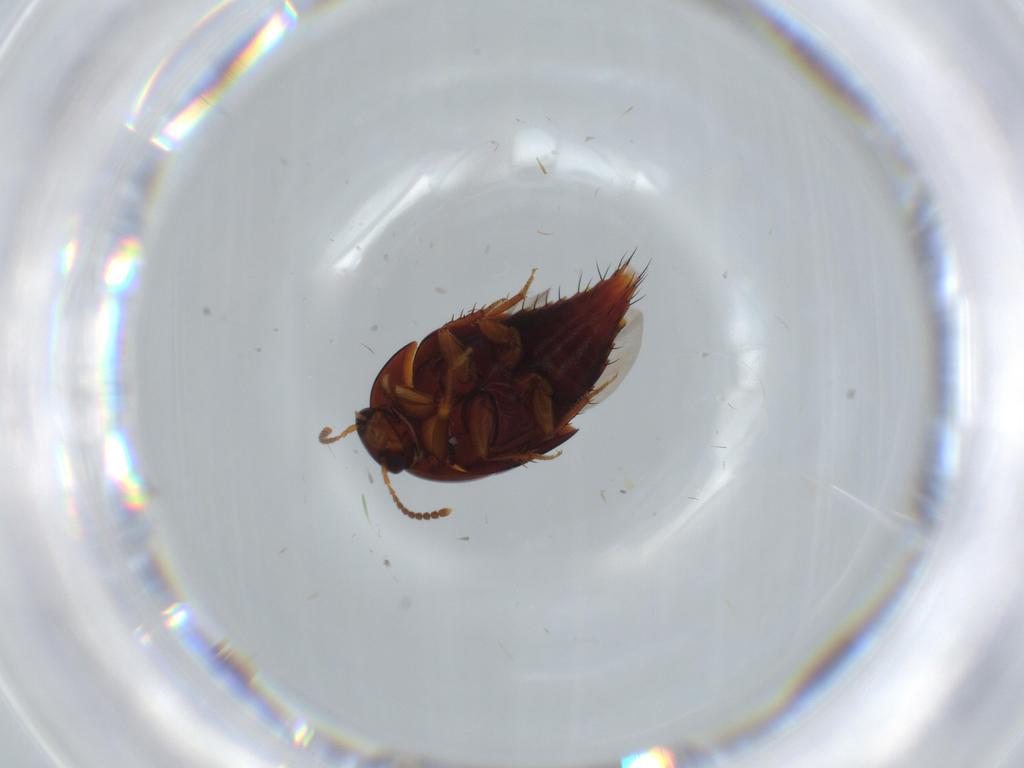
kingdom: Animalia
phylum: Arthropoda
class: Insecta
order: Coleoptera
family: Staphylinidae
